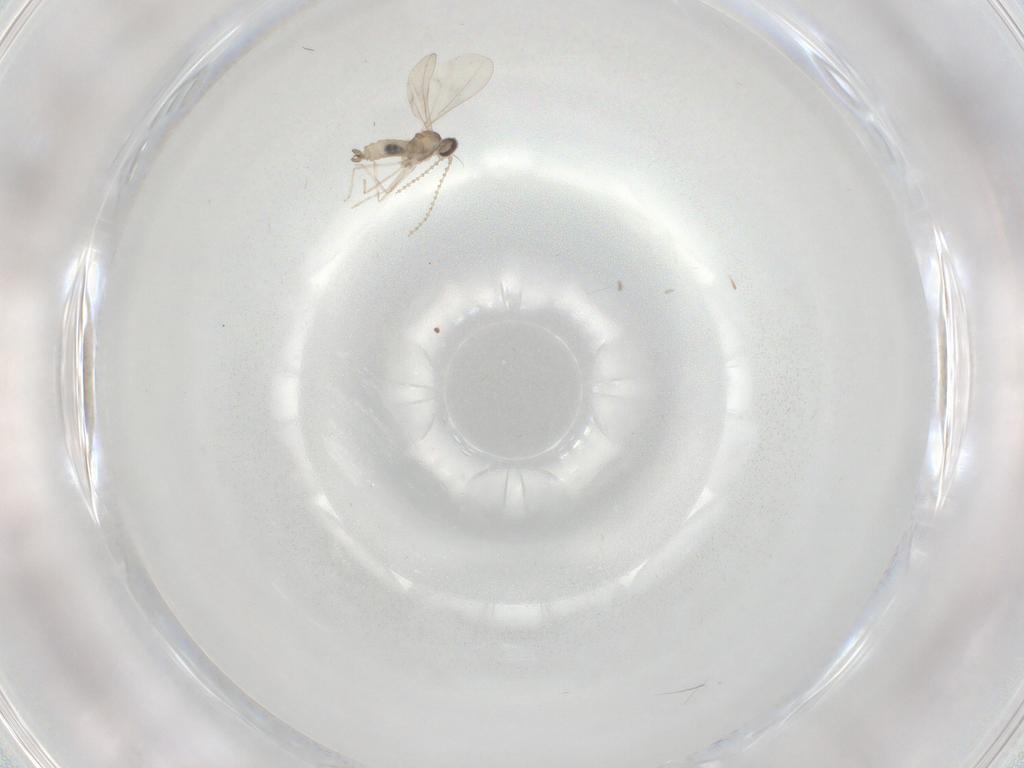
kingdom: Animalia
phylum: Arthropoda
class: Insecta
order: Diptera
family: Cecidomyiidae
